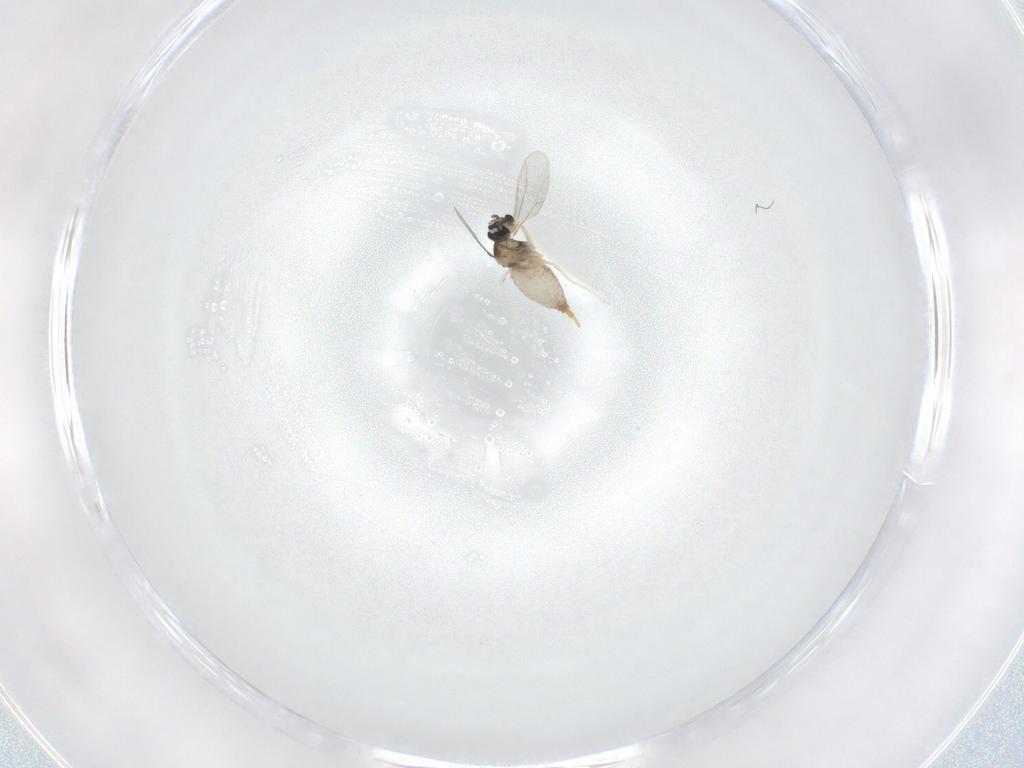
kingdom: Animalia
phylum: Arthropoda
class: Insecta
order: Diptera
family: Cecidomyiidae
